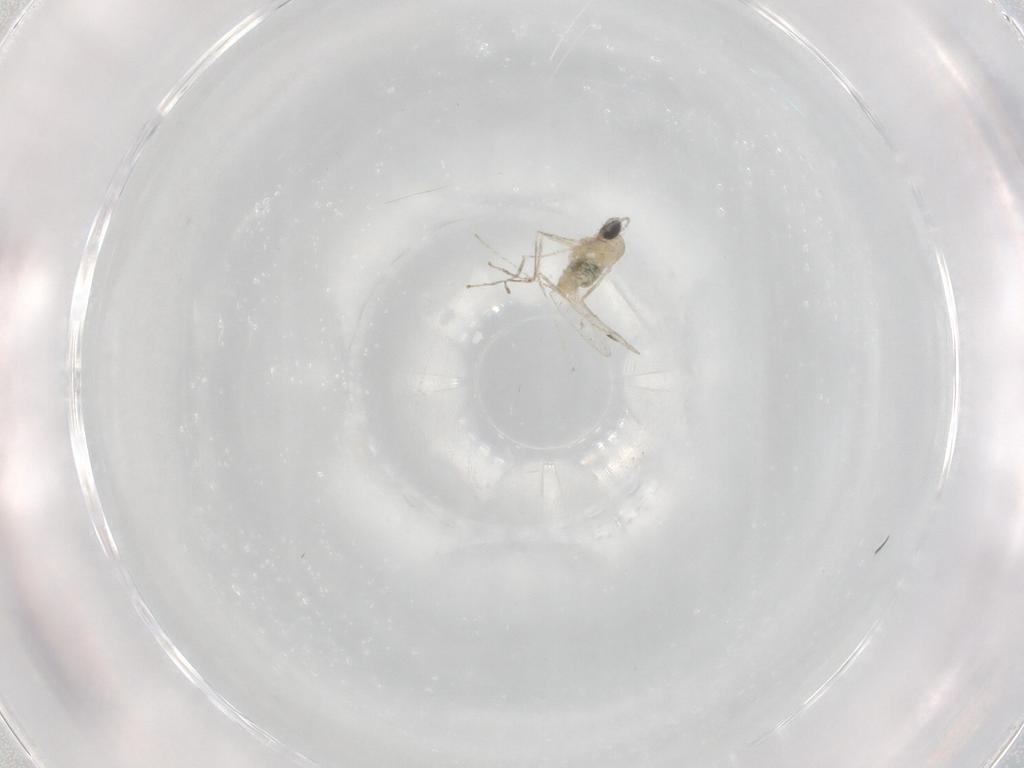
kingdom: Animalia
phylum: Arthropoda
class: Insecta
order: Diptera
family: Cecidomyiidae
